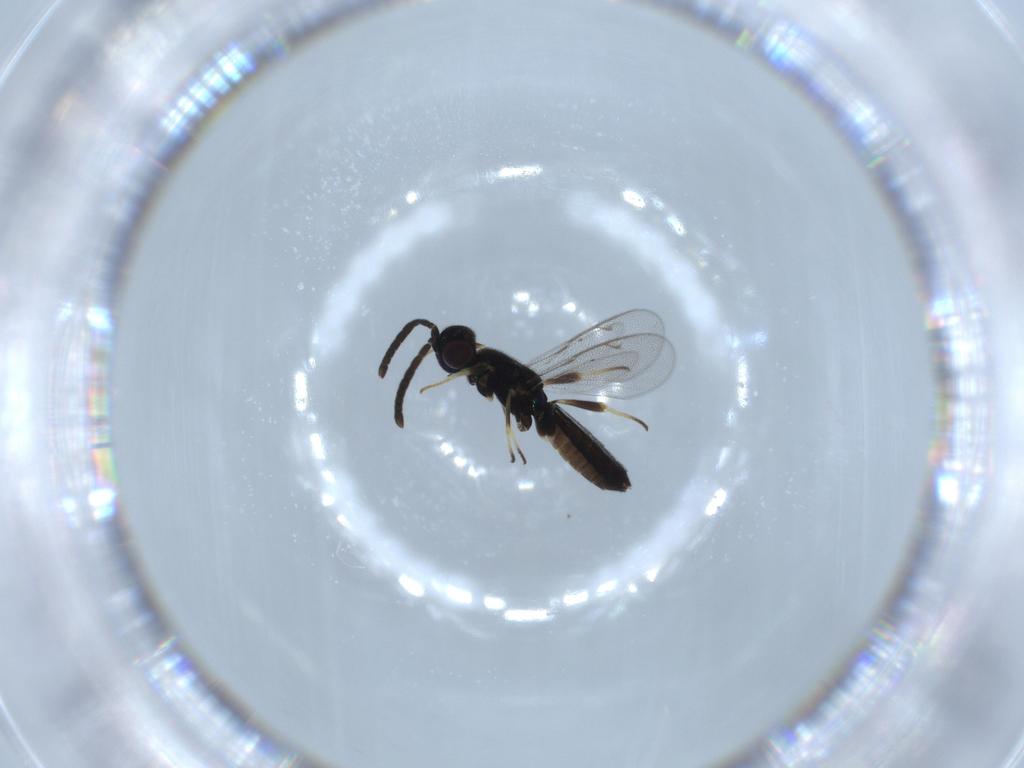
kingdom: Animalia
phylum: Arthropoda
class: Insecta
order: Hymenoptera
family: Eupelmidae
